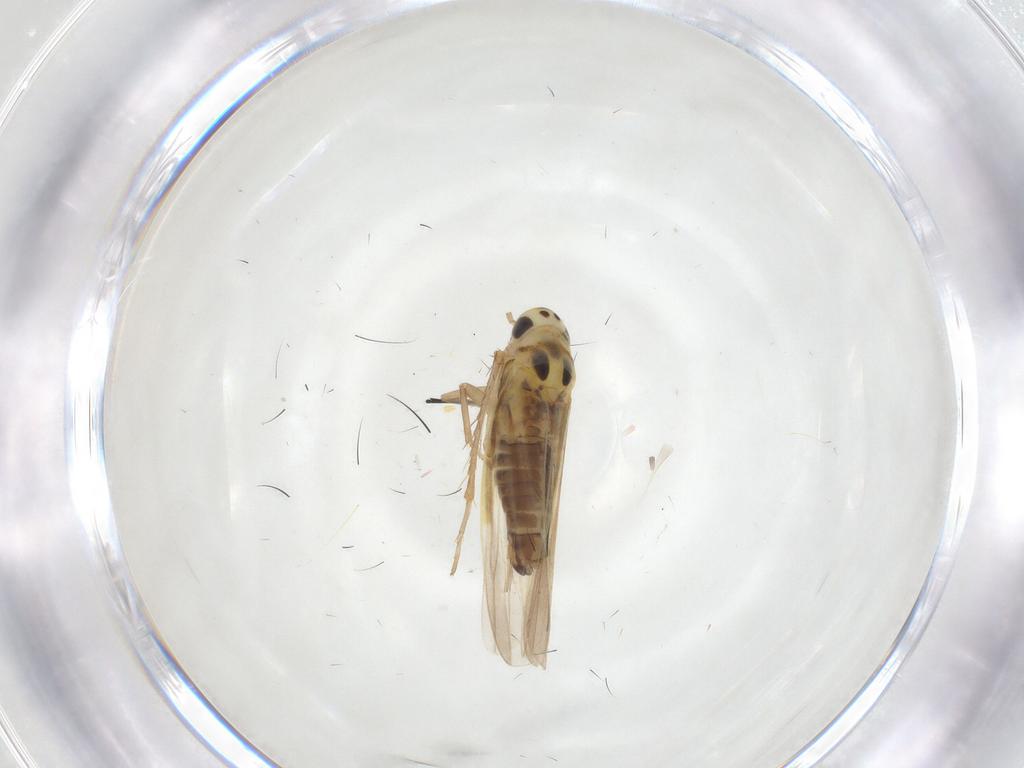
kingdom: Animalia
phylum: Arthropoda
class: Insecta
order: Hemiptera
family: Cicadellidae
